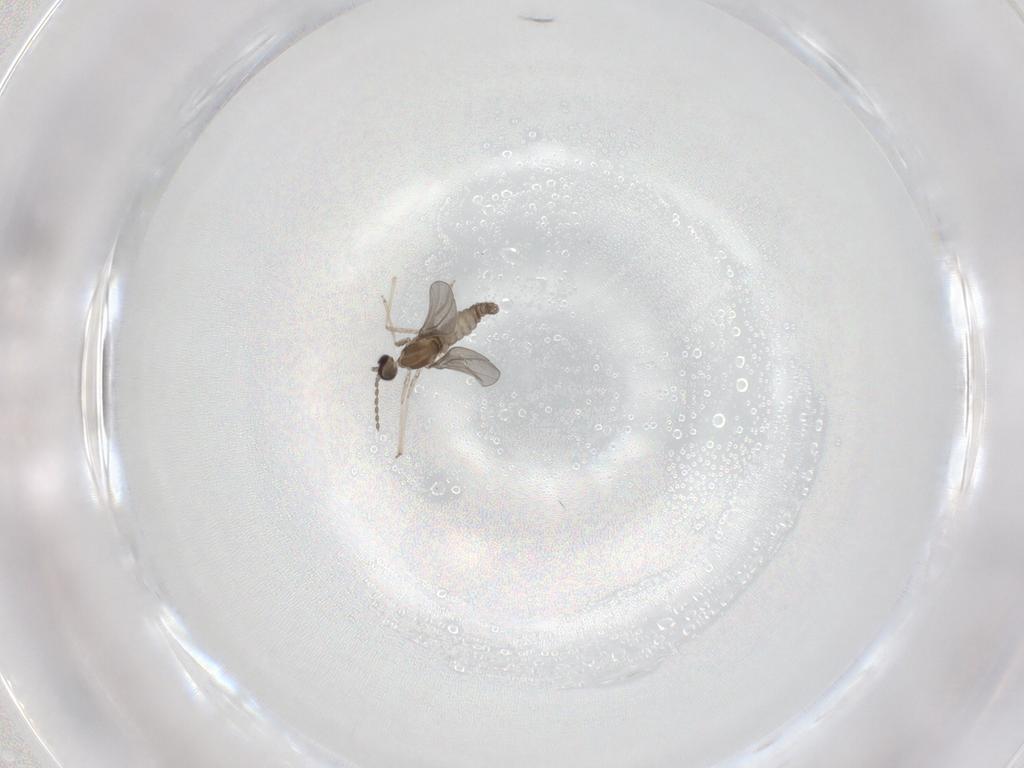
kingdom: Animalia
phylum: Arthropoda
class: Insecta
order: Diptera
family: Cecidomyiidae
